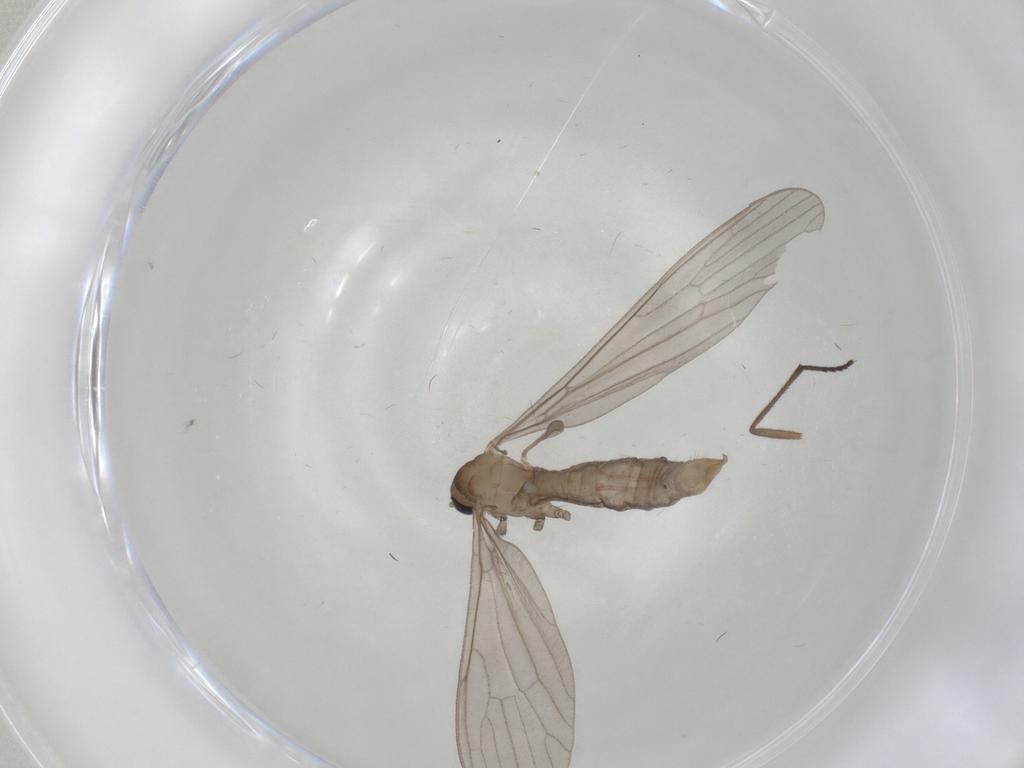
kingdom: Animalia
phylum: Arthropoda
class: Insecta
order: Diptera
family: Limoniidae
